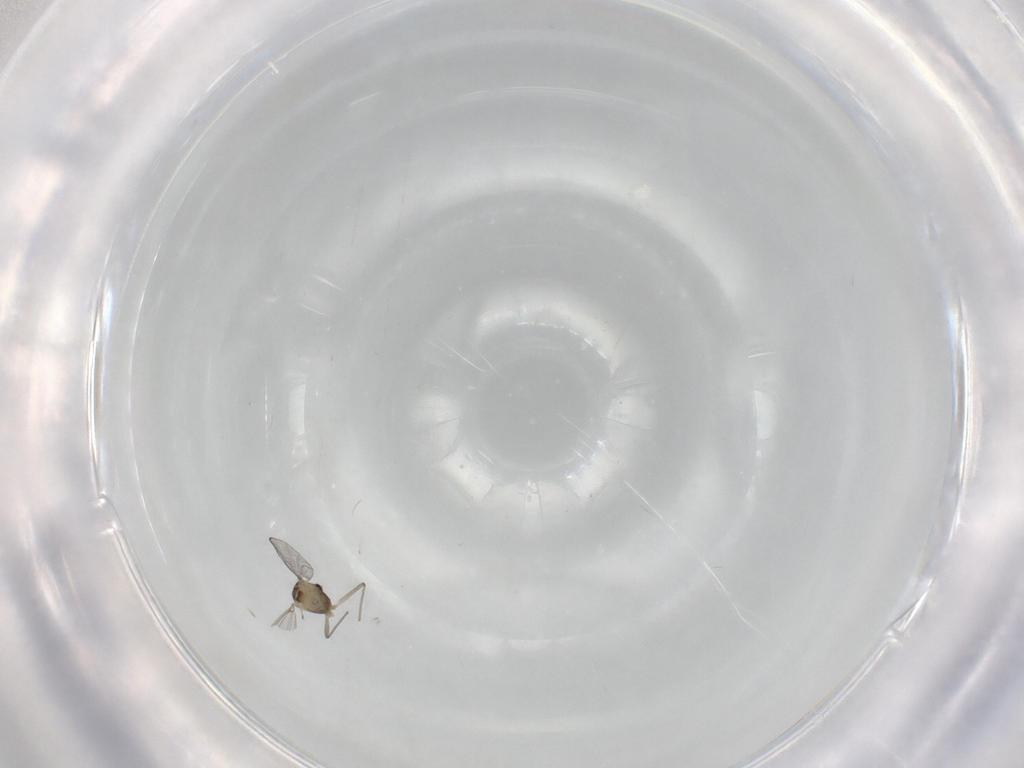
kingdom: Animalia
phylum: Arthropoda
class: Insecta
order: Diptera
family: Chironomidae
